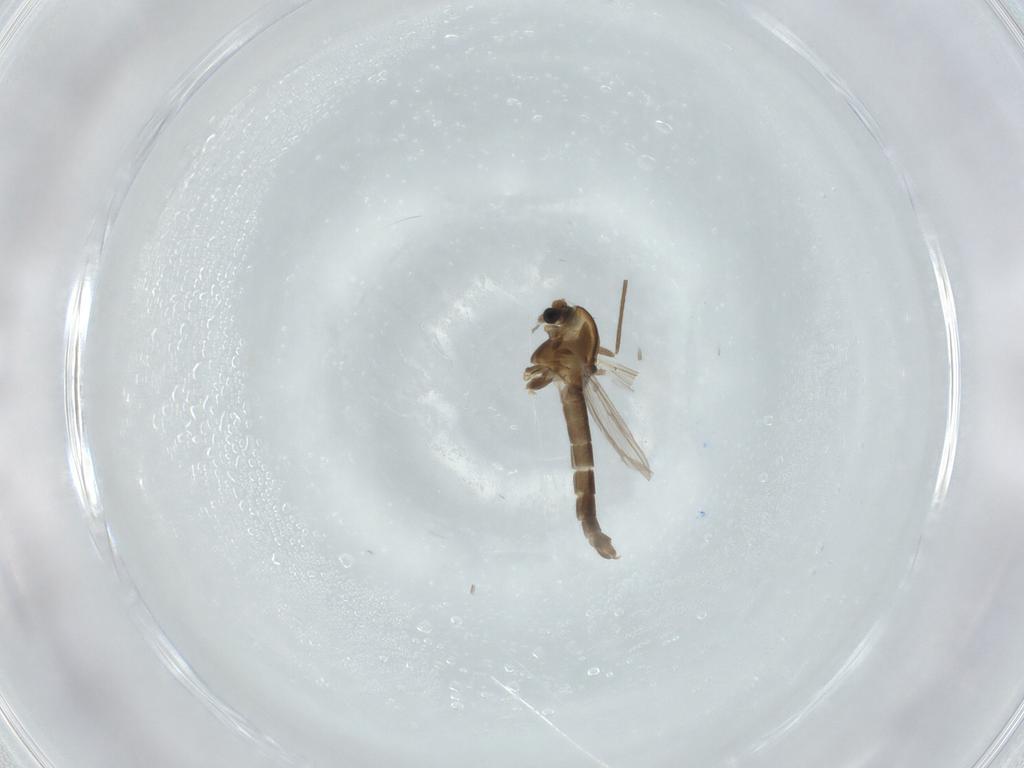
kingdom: Animalia
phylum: Arthropoda
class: Insecta
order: Diptera
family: Chironomidae
